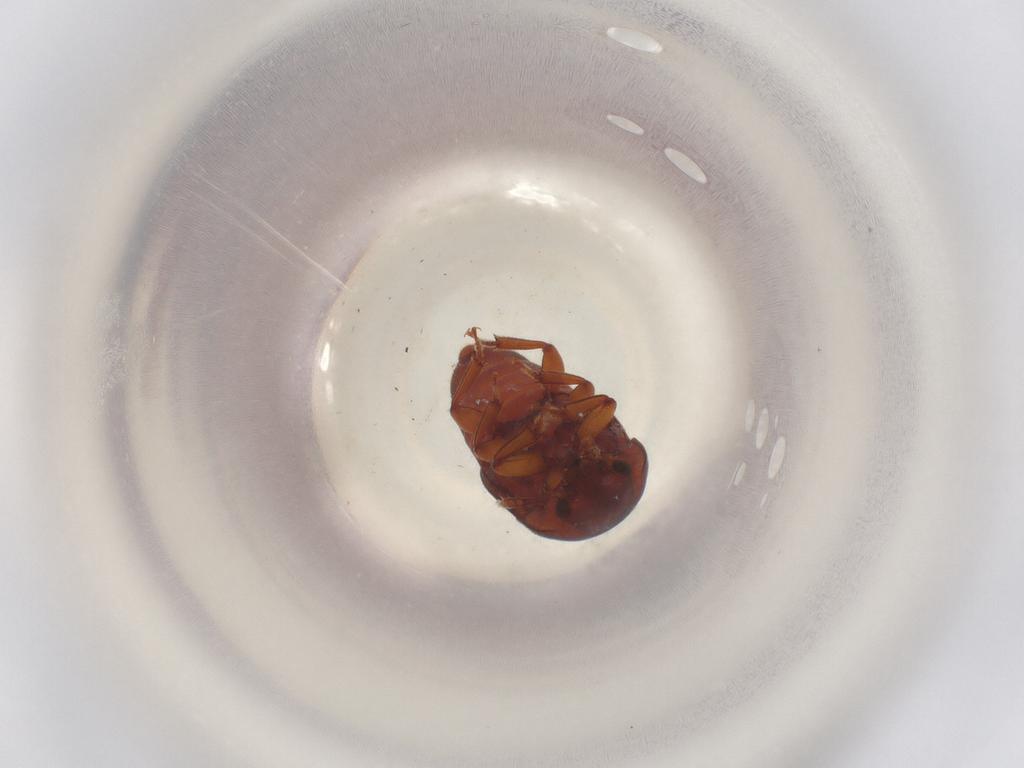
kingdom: Animalia
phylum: Arthropoda
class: Insecta
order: Coleoptera
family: Nitidulidae
